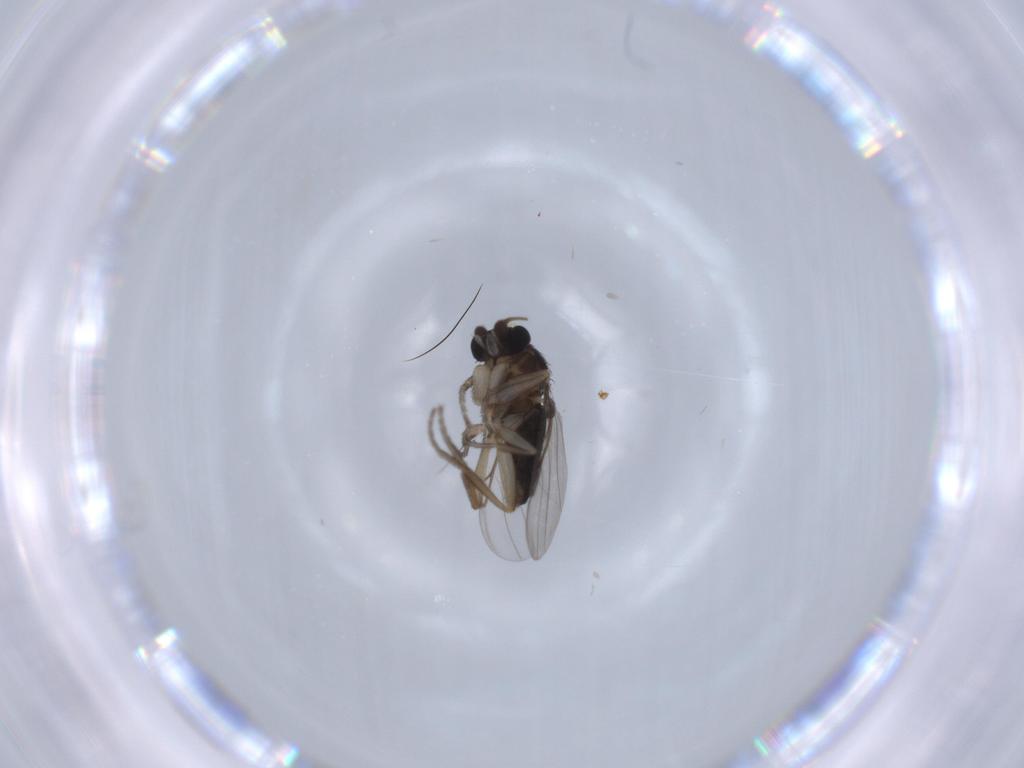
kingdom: Animalia
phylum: Arthropoda
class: Insecta
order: Diptera
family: Phoridae
